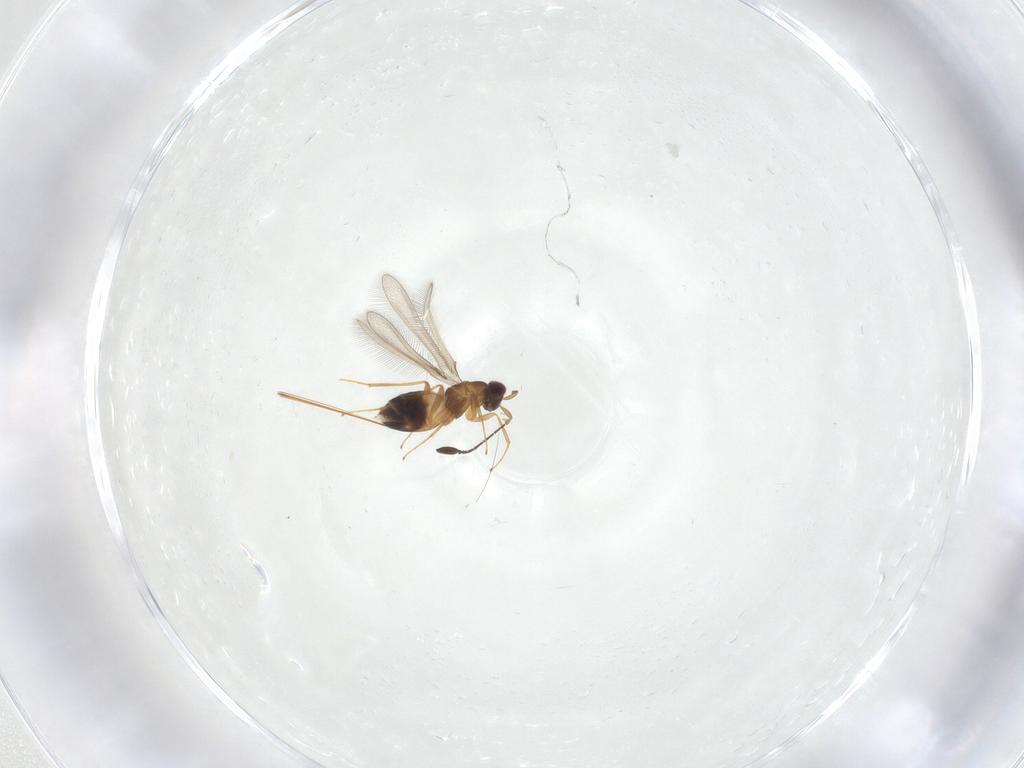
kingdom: Animalia
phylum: Arthropoda
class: Insecta
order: Hymenoptera
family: Mymaridae
